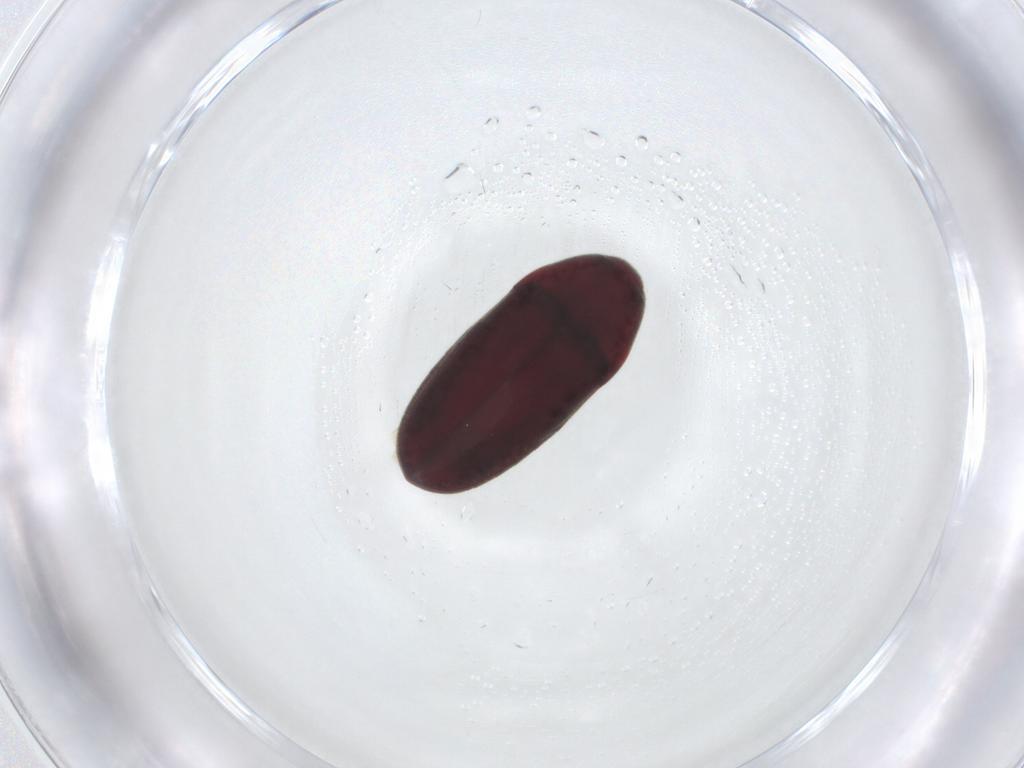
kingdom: Animalia
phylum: Arthropoda
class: Insecta
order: Coleoptera
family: Throscidae
